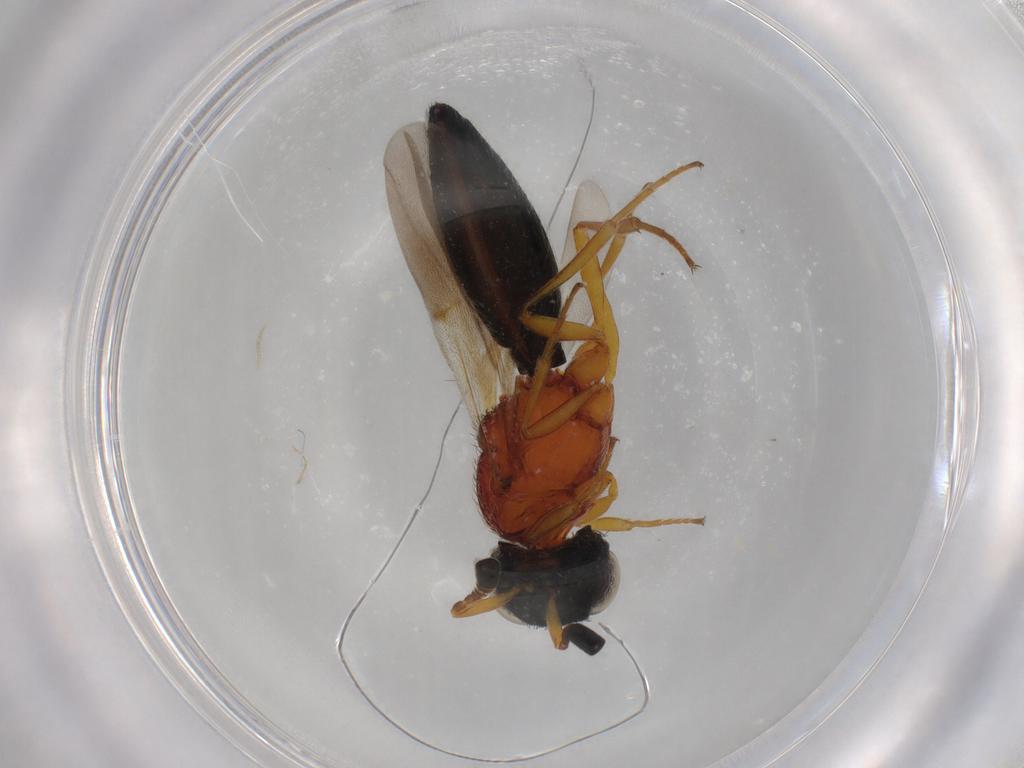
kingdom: Animalia
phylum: Arthropoda
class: Insecta
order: Hymenoptera
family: Scelionidae
